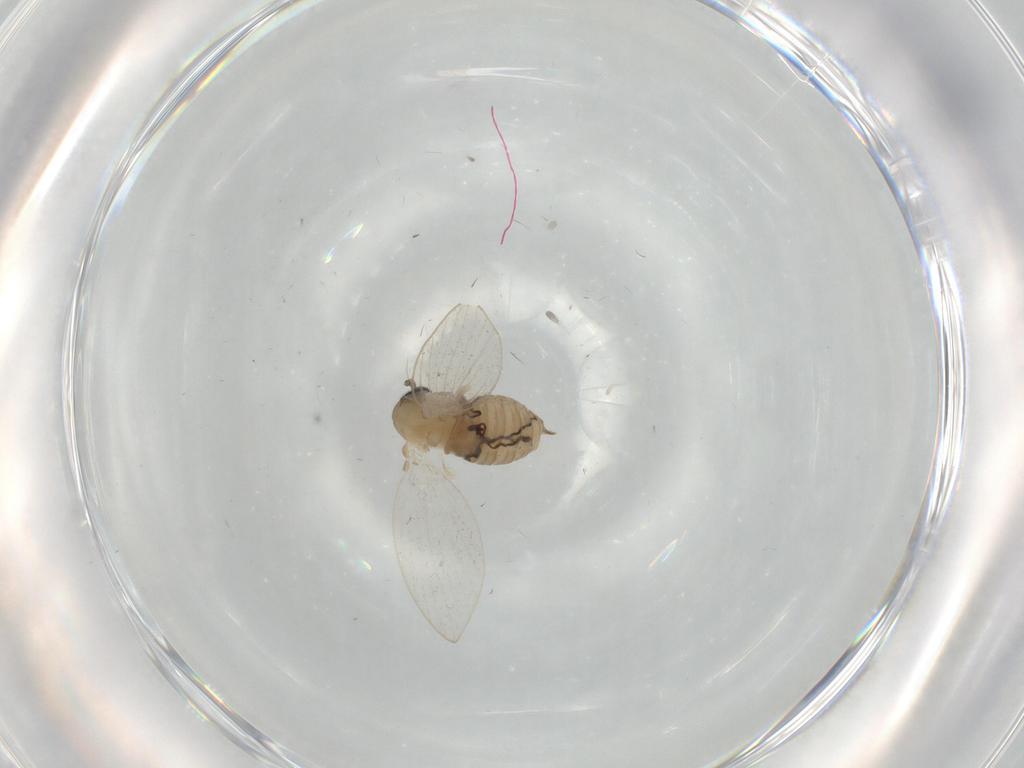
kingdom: Animalia
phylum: Arthropoda
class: Insecta
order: Diptera
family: Psychodidae
